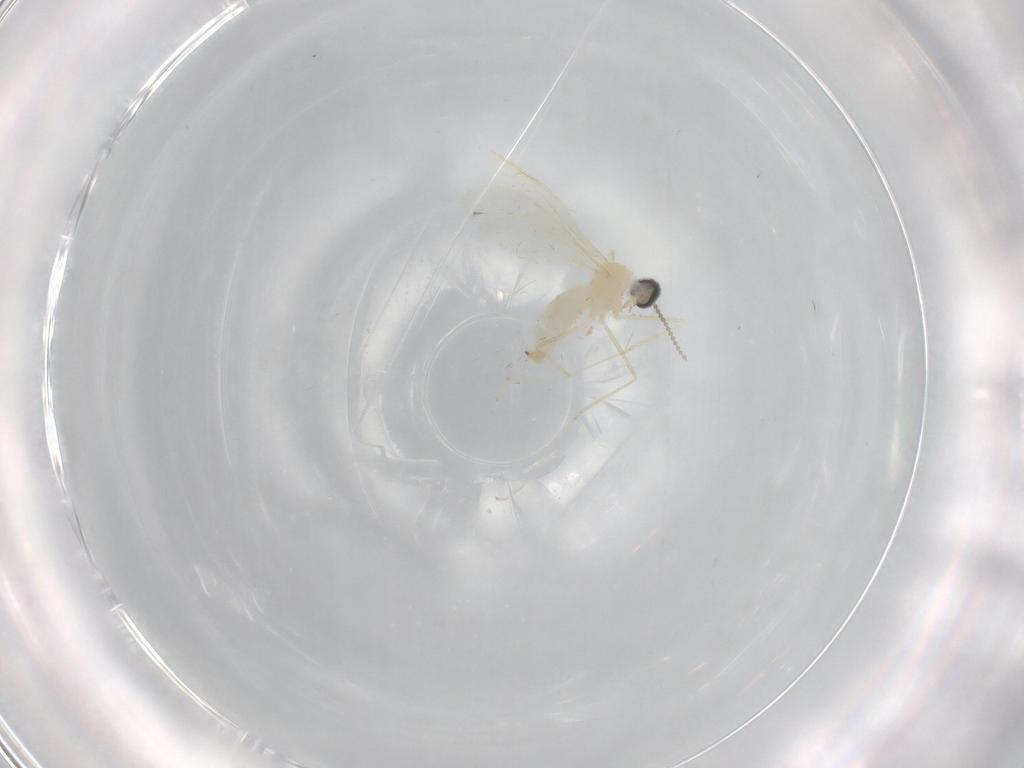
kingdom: Animalia
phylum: Arthropoda
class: Insecta
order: Diptera
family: Cecidomyiidae
